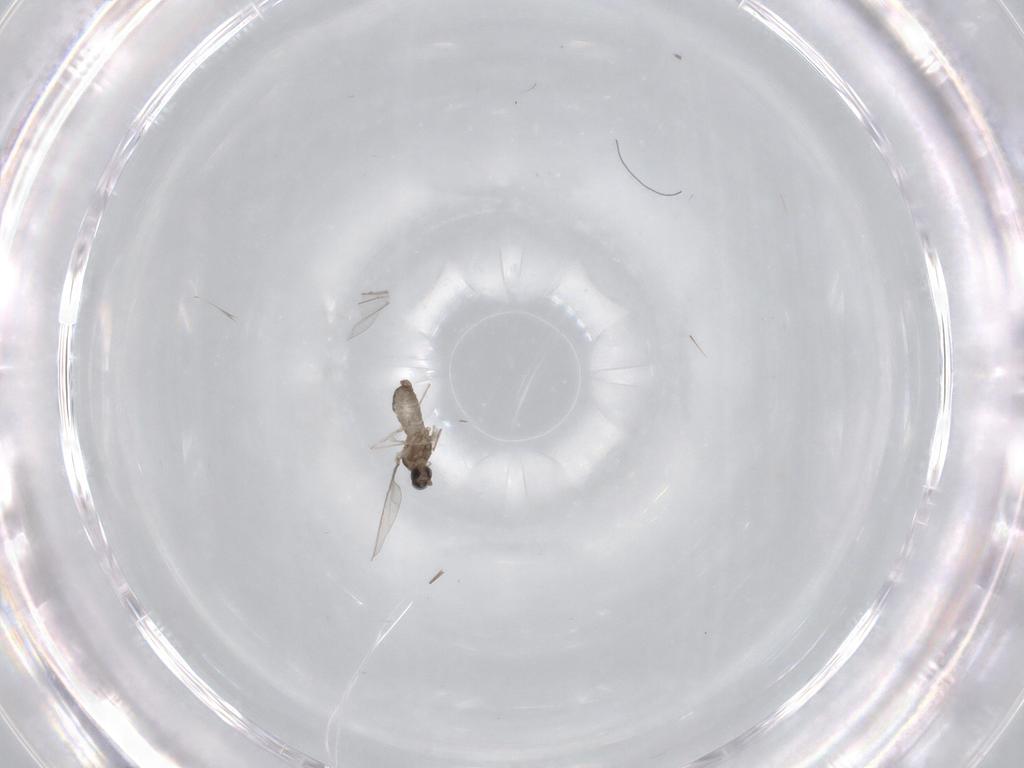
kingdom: Animalia
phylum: Arthropoda
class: Insecta
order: Diptera
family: Cecidomyiidae
